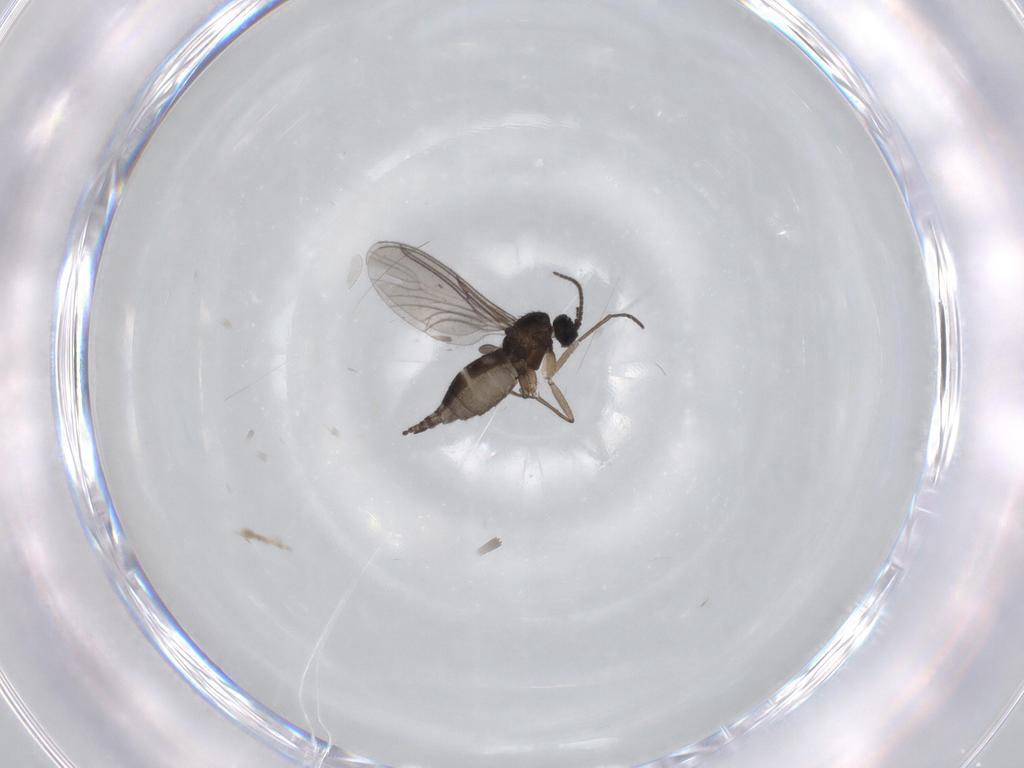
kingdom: Animalia
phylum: Arthropoda
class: Insecta
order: Diptera
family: Sciaridae
